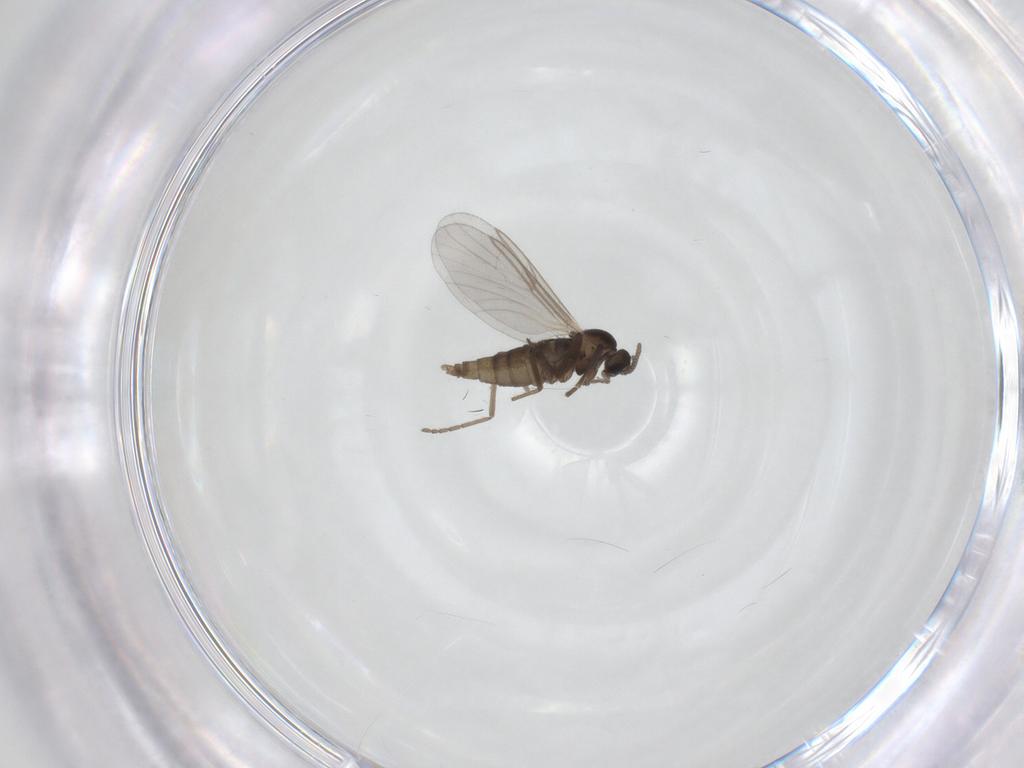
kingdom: Animalia
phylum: Arthropoda
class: Insecta
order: Diptera
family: Cecidomyiidae
